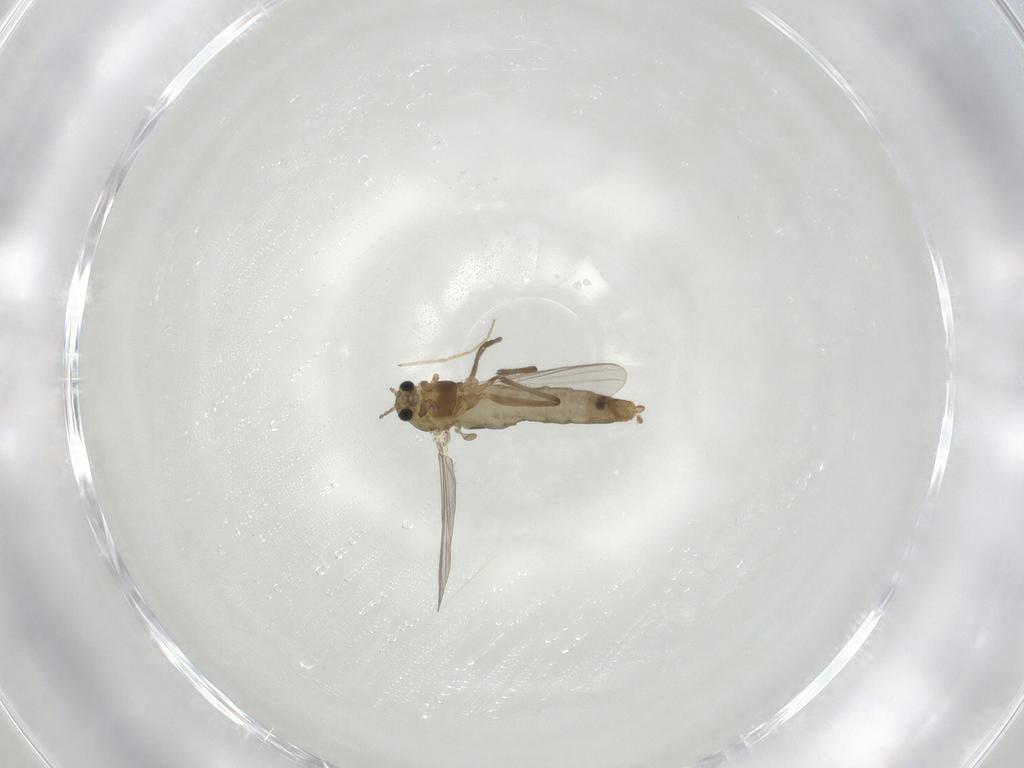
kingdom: Animalia
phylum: Arthropoda
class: Insecta
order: Diptera
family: Chironomidae
